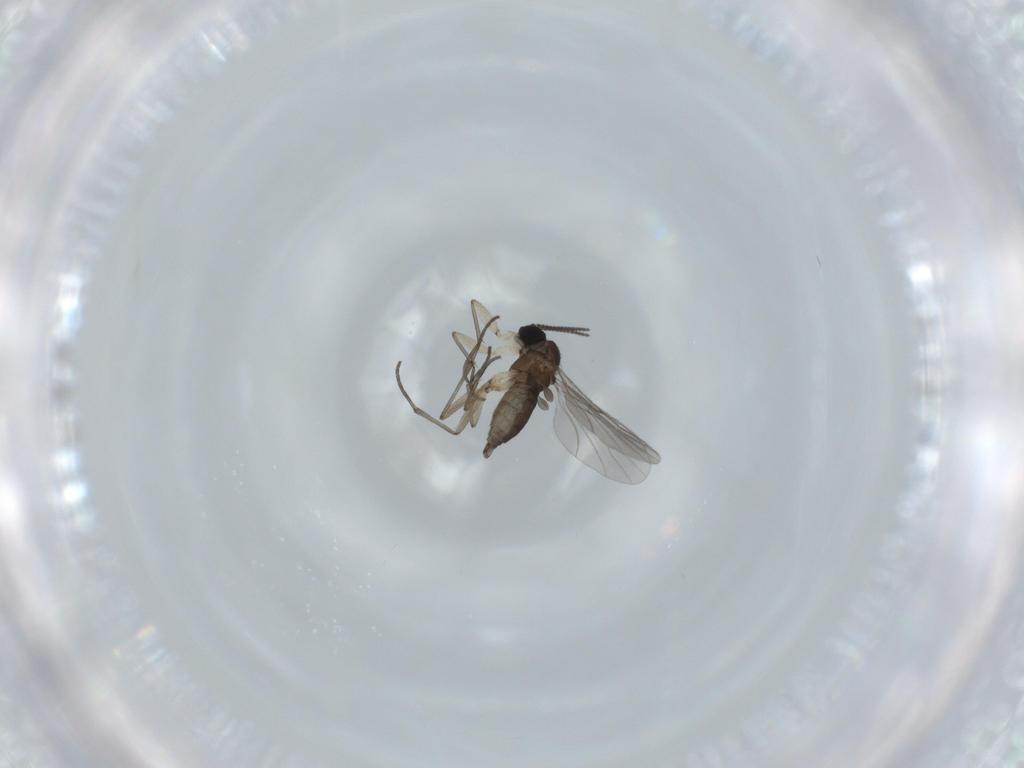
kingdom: Animalia
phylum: Arthropoda
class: Insecta
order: Diptera
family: Sciaridae
